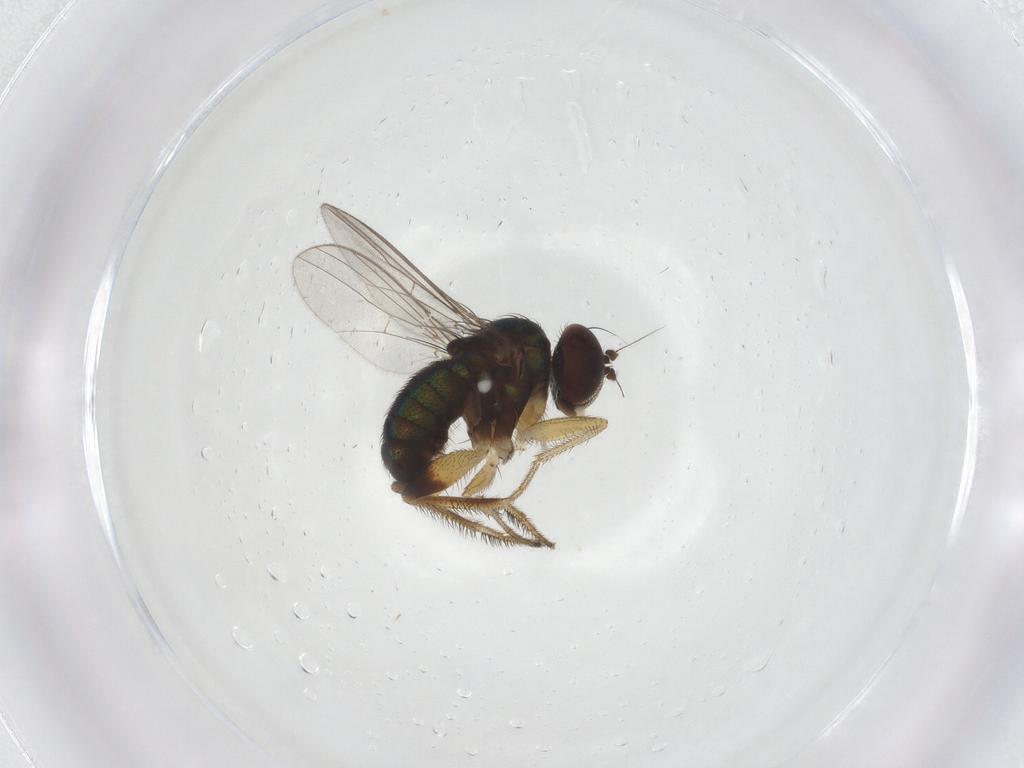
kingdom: Animalia
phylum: Arthropoda
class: Insecta
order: Diptera
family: Dolichopodidae
